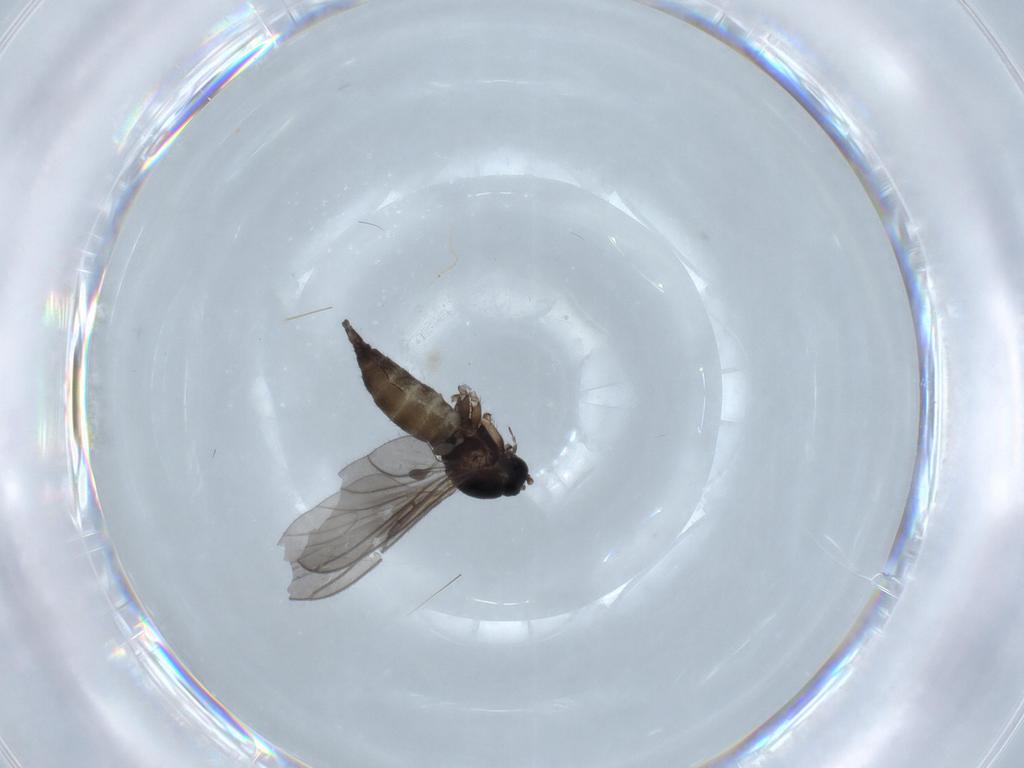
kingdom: Animalia
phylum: Arthropoda
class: Insecta
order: Diptera
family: Sciaridae
